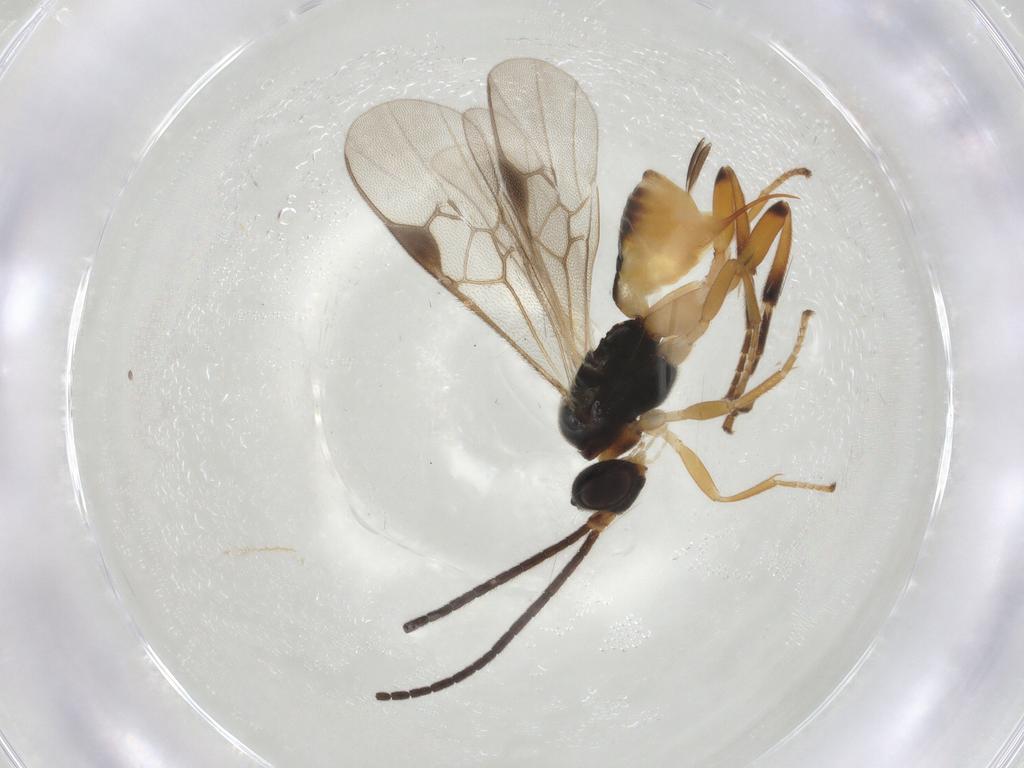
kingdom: Animalia
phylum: Arthropoda
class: Insecta
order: Hymenoptera
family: Braconidae
